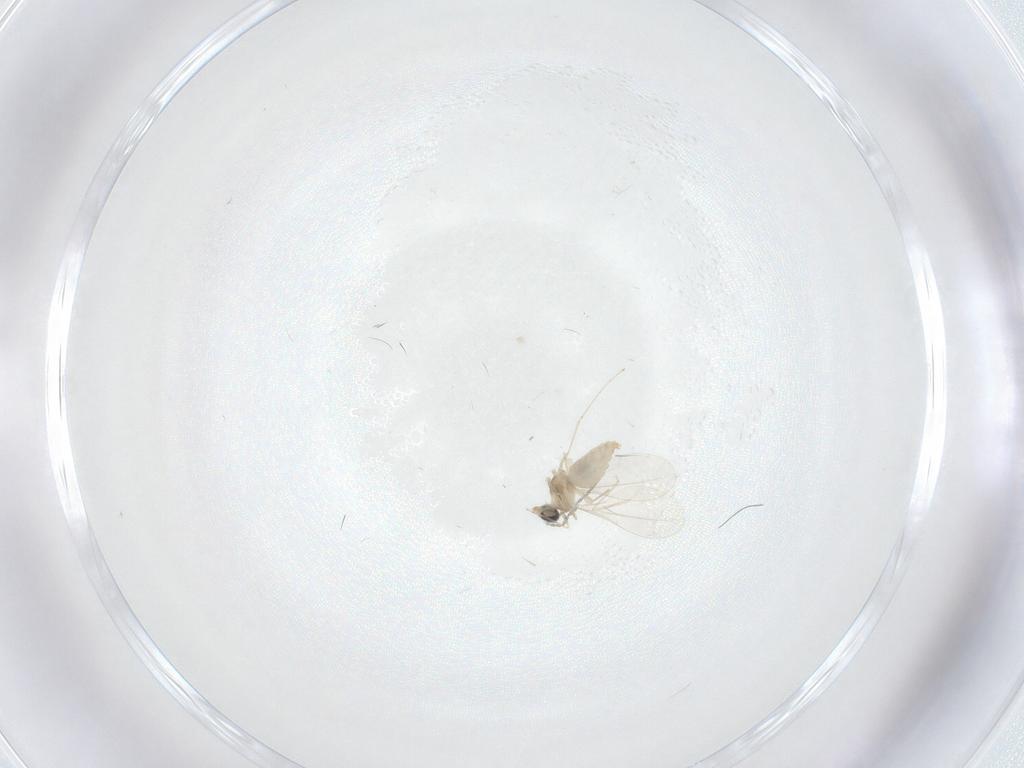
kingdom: Animalia
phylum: Arthropoda
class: Insecta
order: Diptera
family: Cecidomyiidae
